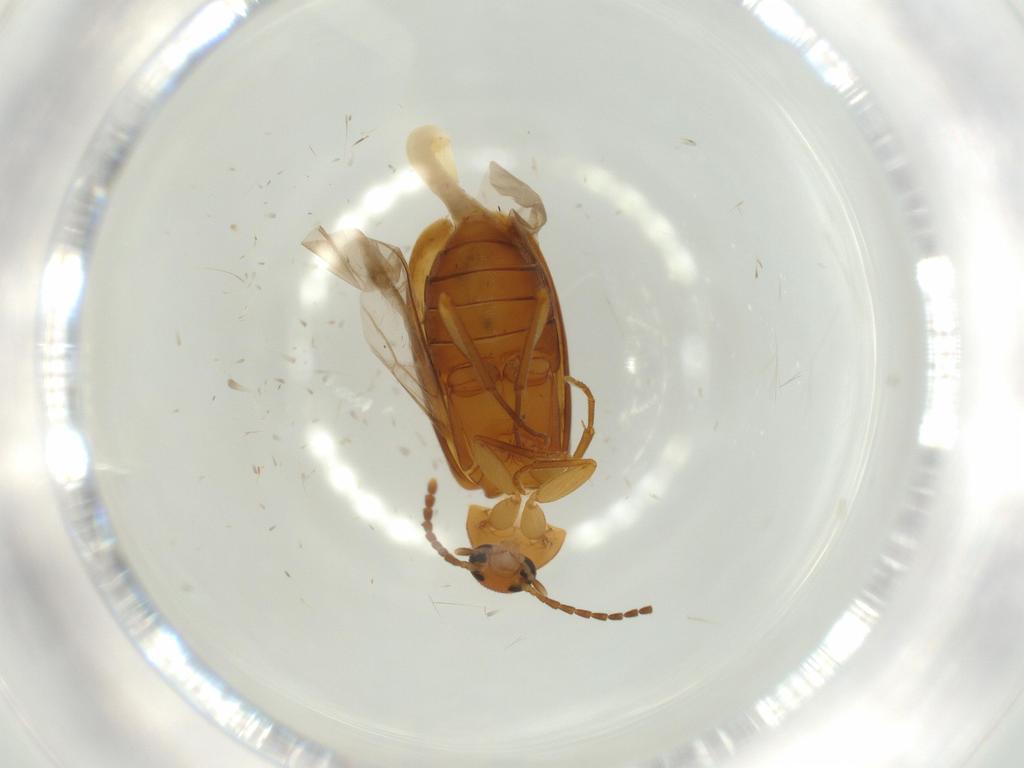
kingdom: Animalia
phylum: Arthropoda
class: Insecta
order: Coleoptera
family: Scraptiidae
